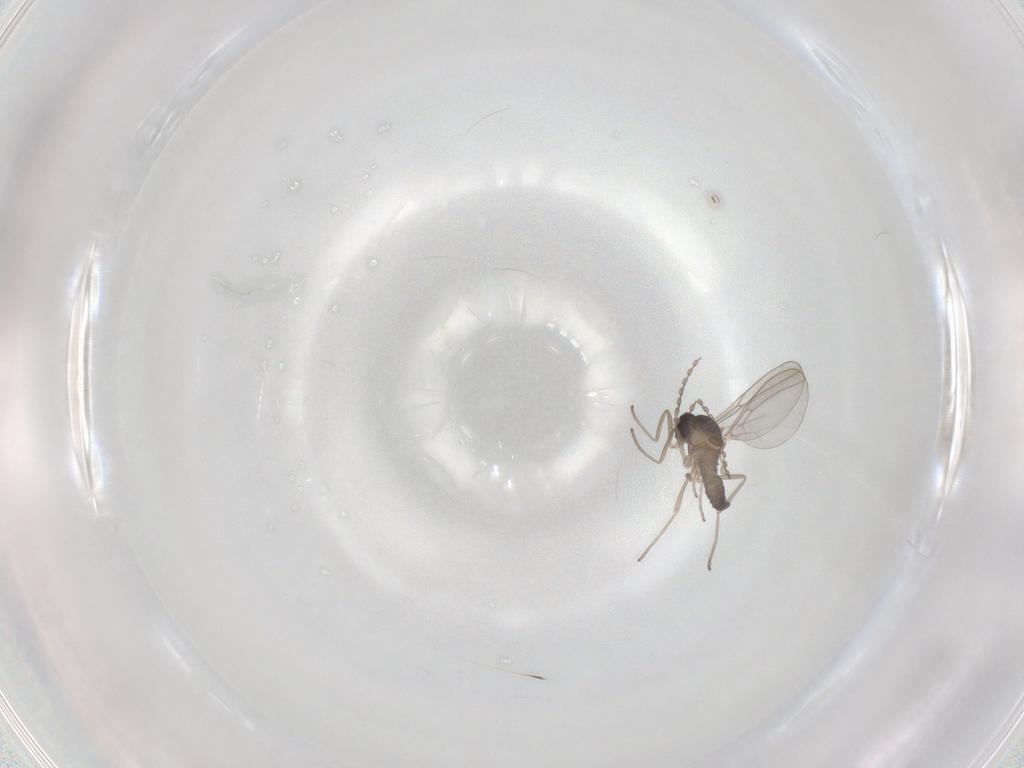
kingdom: Animalia
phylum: Arthropoda
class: Insecta
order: Diptera
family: Cecidomyiidae
